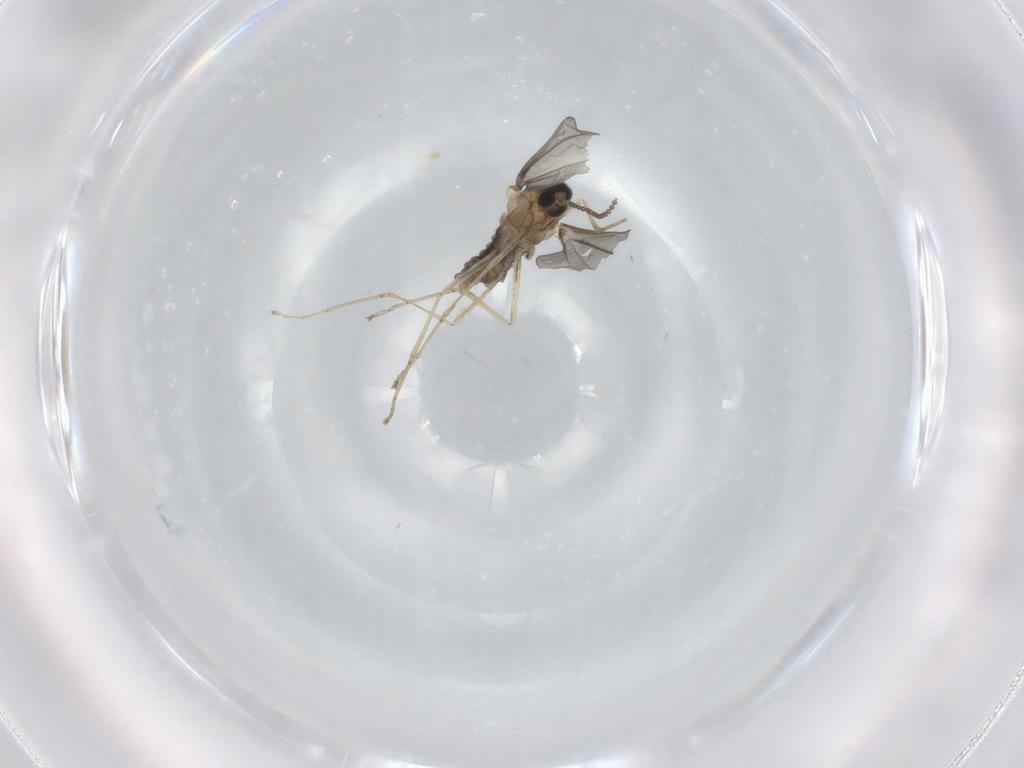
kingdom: Animalia
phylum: Arthropoda
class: Insecta
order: Diptera
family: Cecidomyiidae
